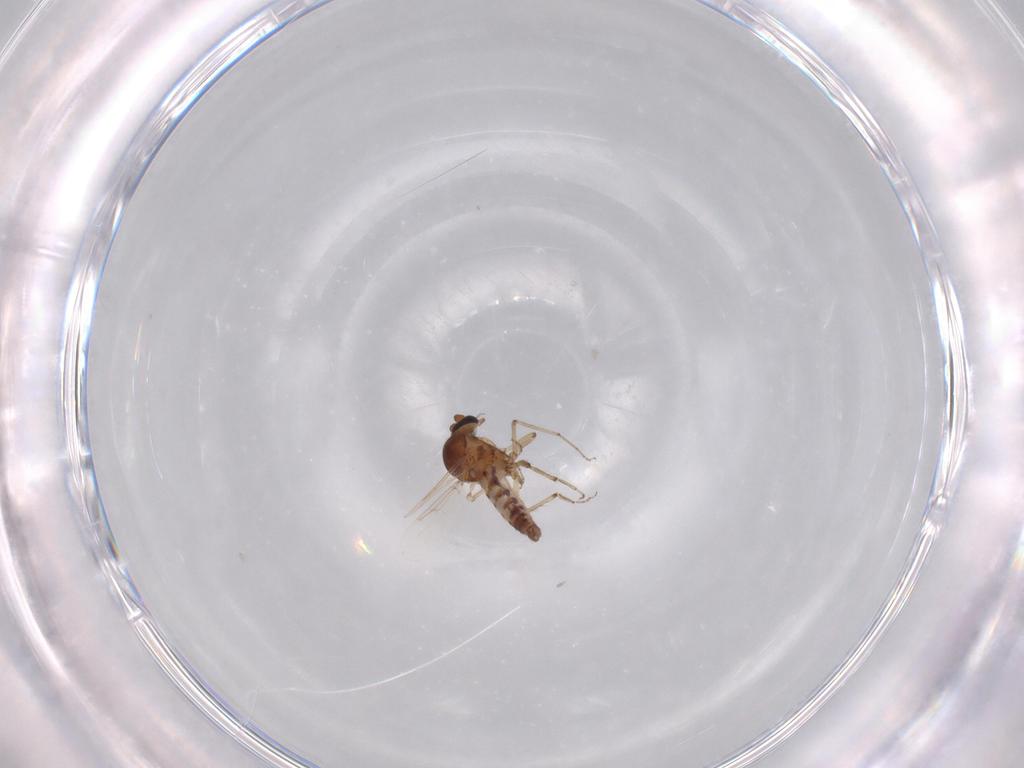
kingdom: Animalia
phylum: Arthropoda
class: Insecta
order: Diptera
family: Ceratopogonidae
